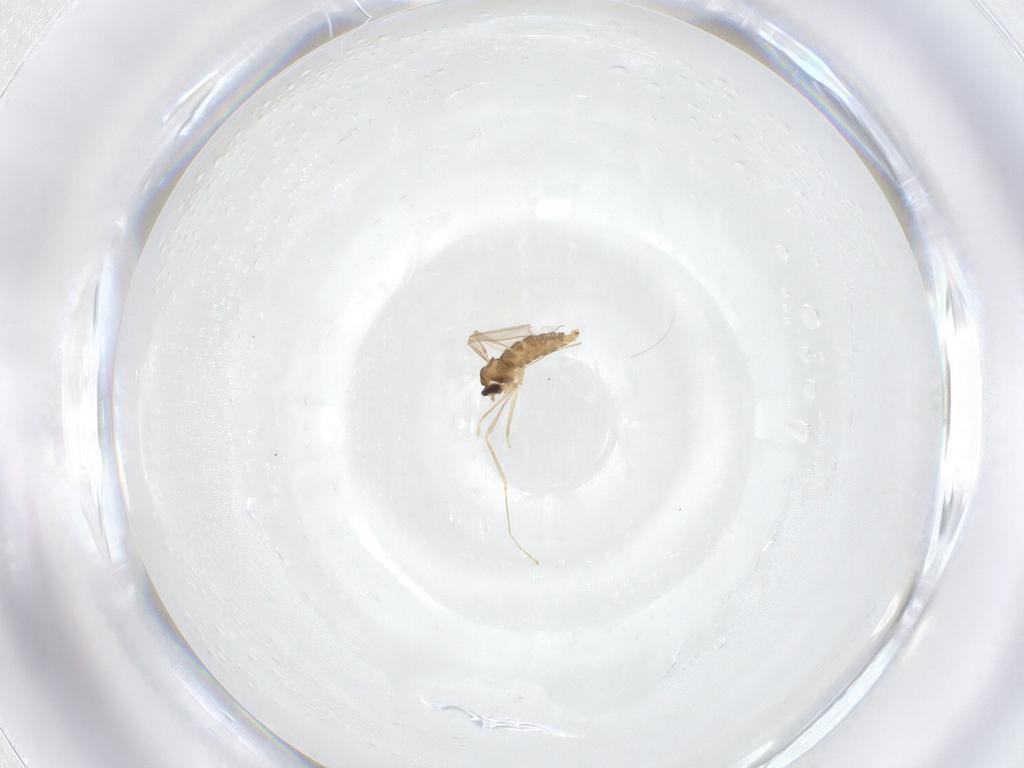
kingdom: Animalia
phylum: Arthropoda
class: Insecta
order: Diptera
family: Cecidomyiidae
